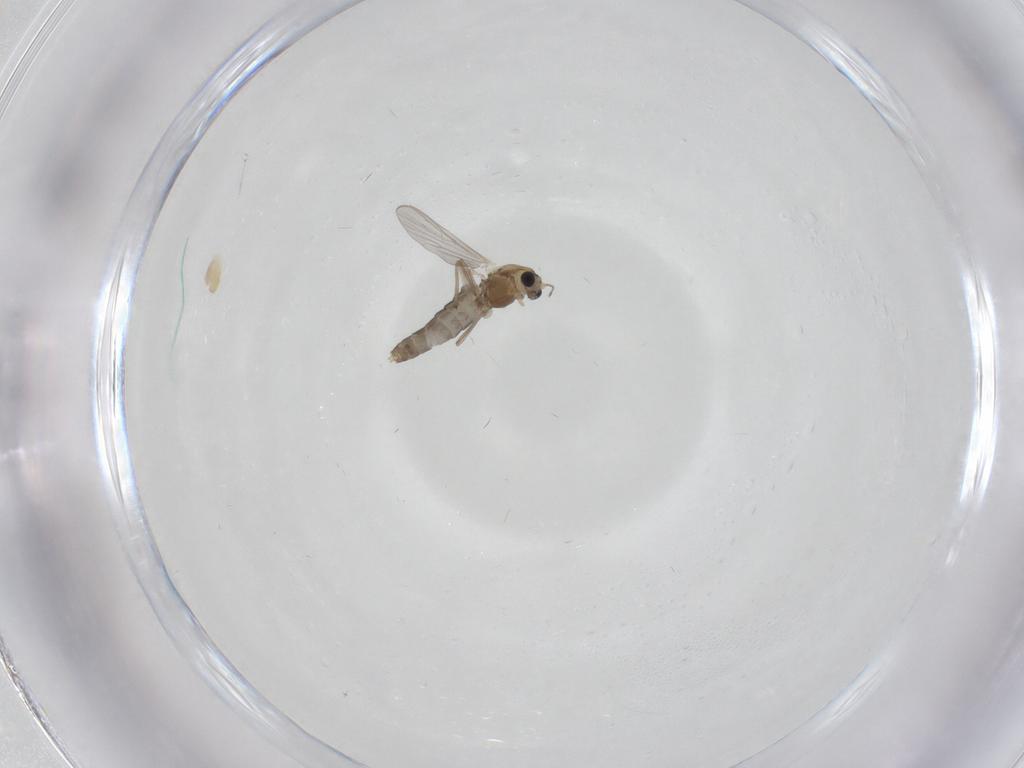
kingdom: Animalia
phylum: Arthropoda
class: Insecta
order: Diptera
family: Chironomidae
